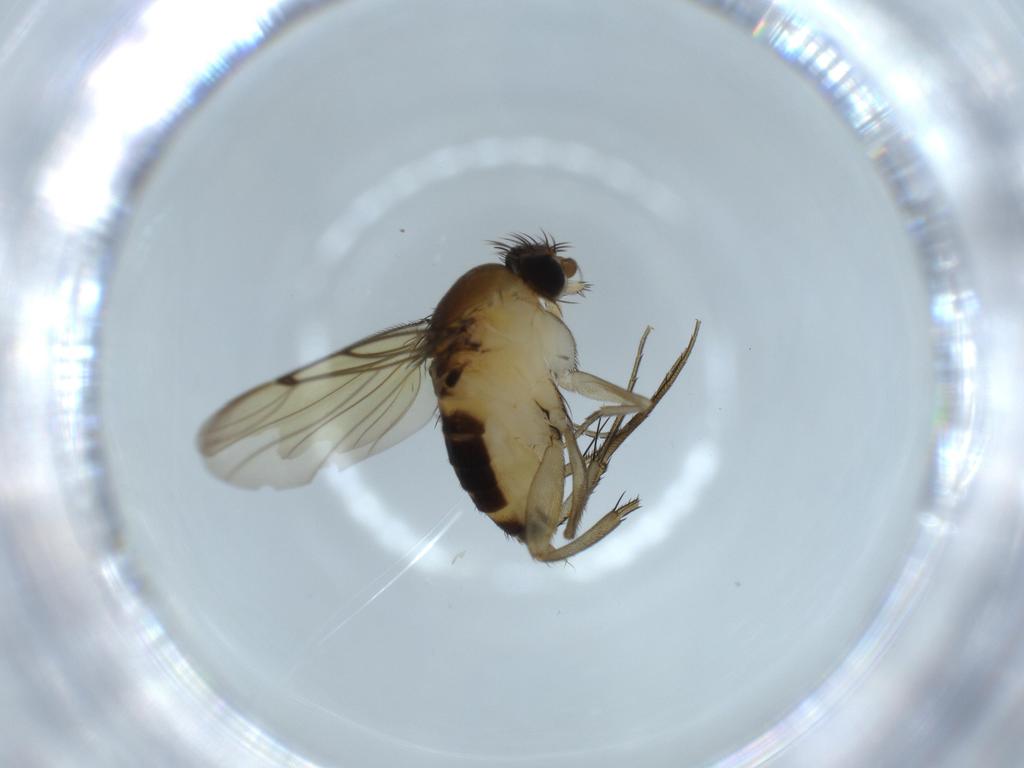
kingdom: Animalia
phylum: Arthropoda
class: Insecta
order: Diptera
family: Phoridae
